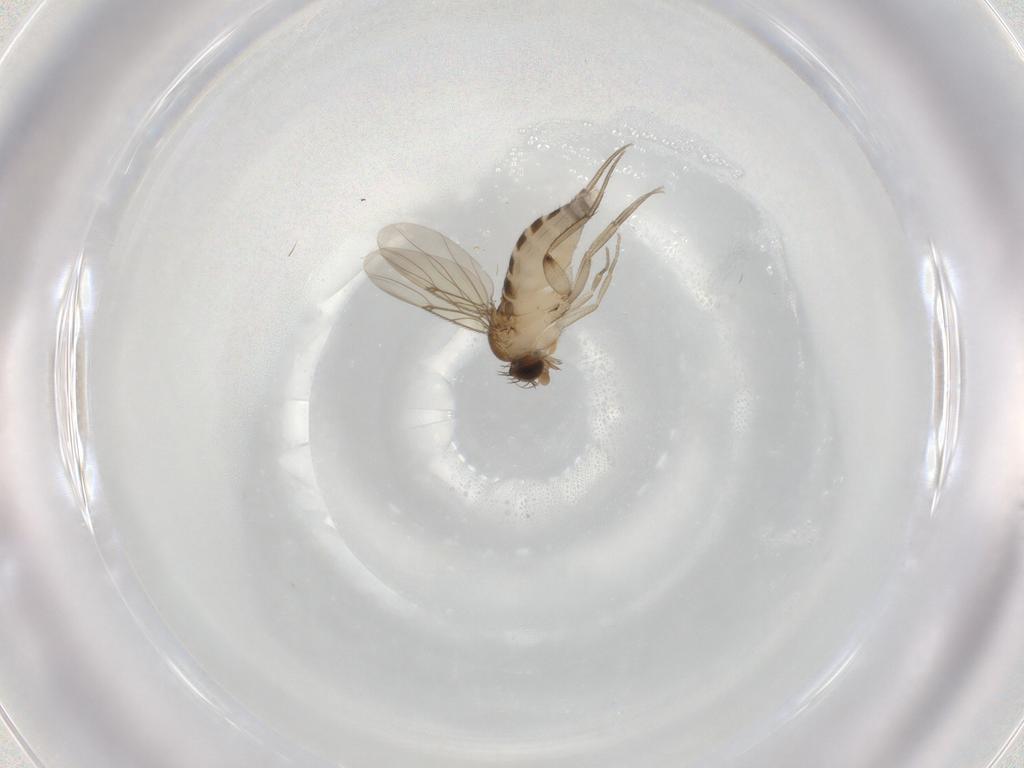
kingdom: Animalia
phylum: Arthropoda
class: Insecta
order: Diptera
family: Phoridae
